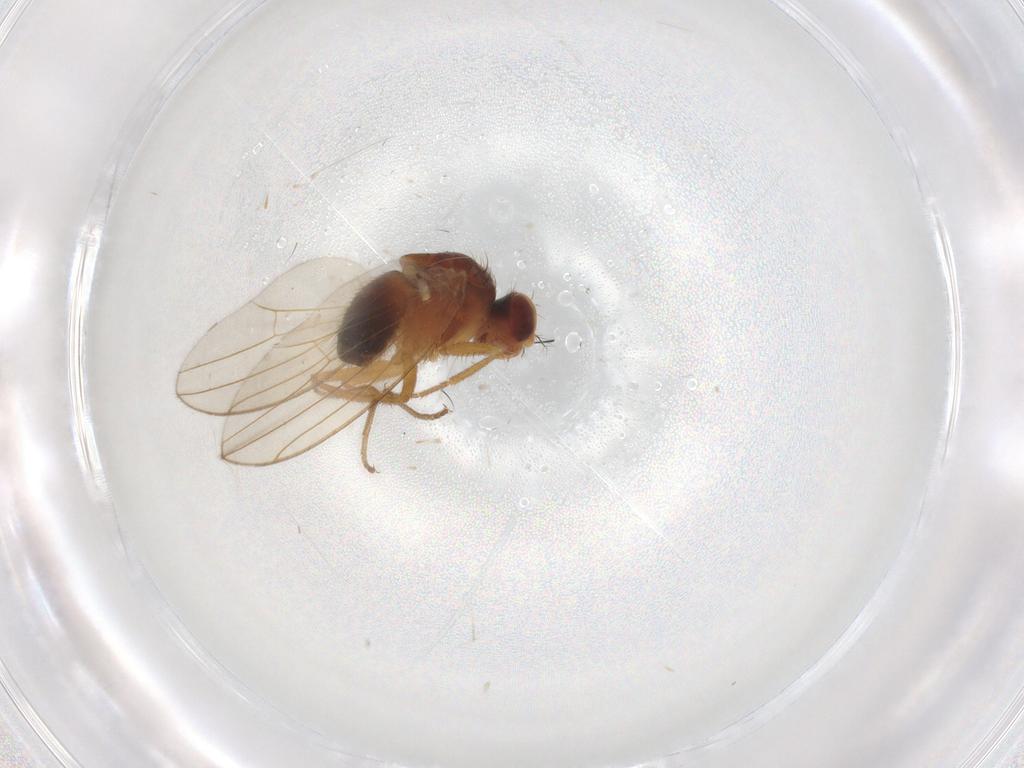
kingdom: Animalia
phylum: Arthropoda
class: Insecta
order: Diptera
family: Drosophilidae
